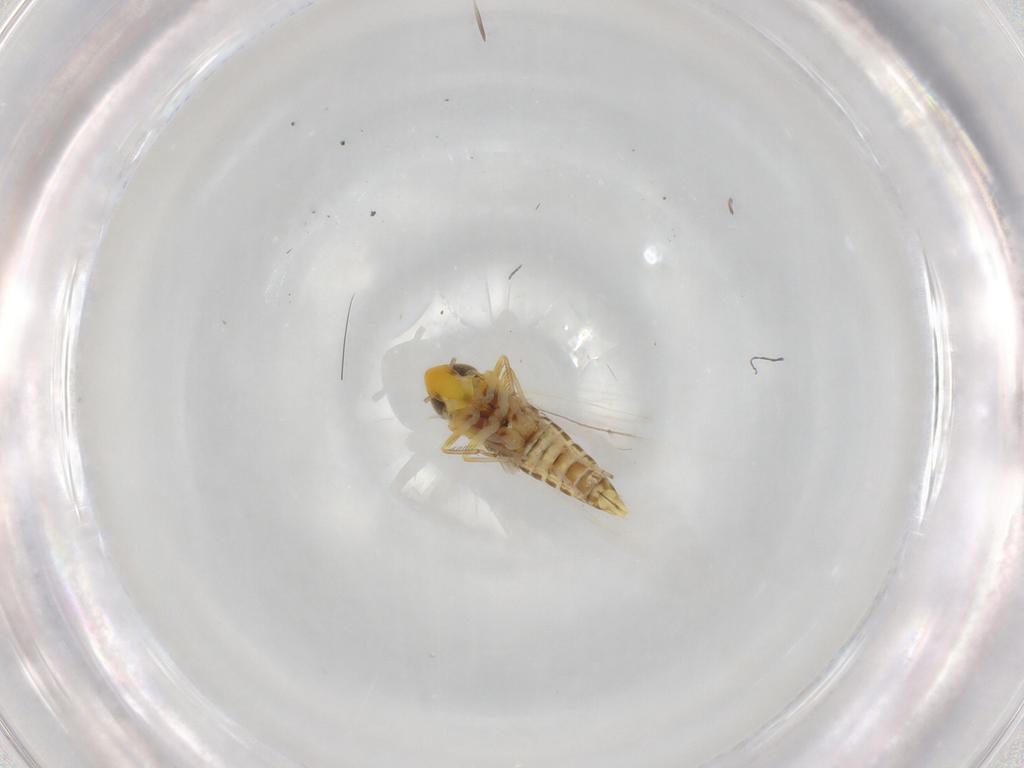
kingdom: Animalia
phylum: Arthropoda
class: Insecta
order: Hemiptera
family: Cicadellidae
